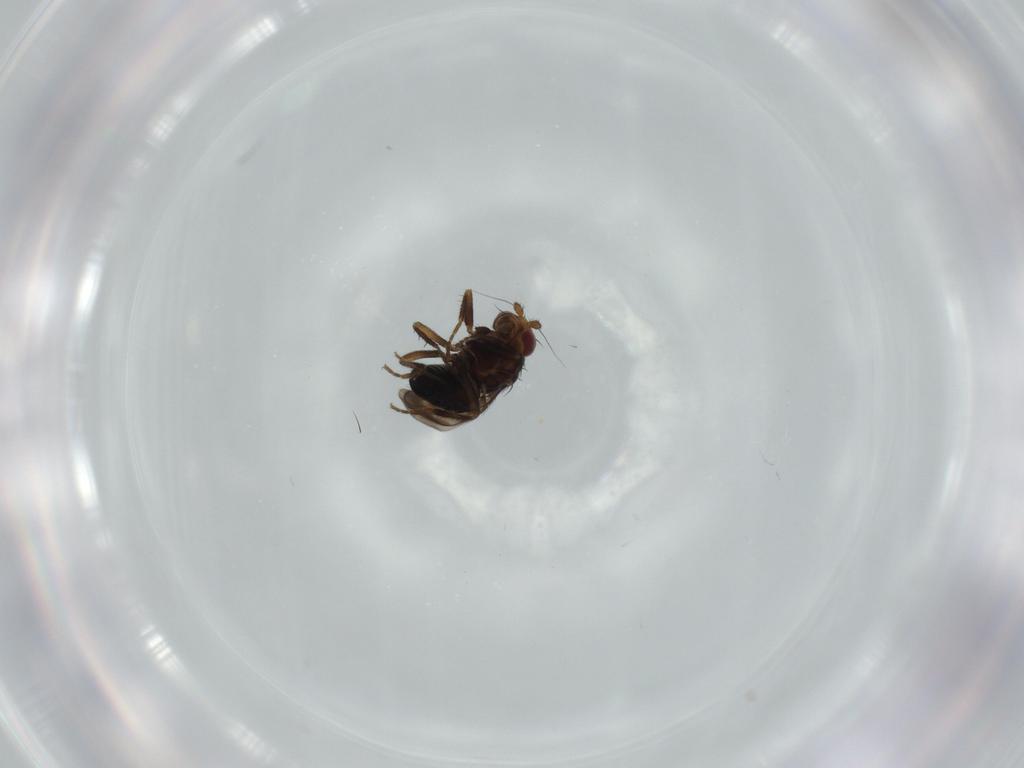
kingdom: Animalia
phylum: Arthropoda
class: Insecta
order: Diptera
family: Sphaeroceridae
